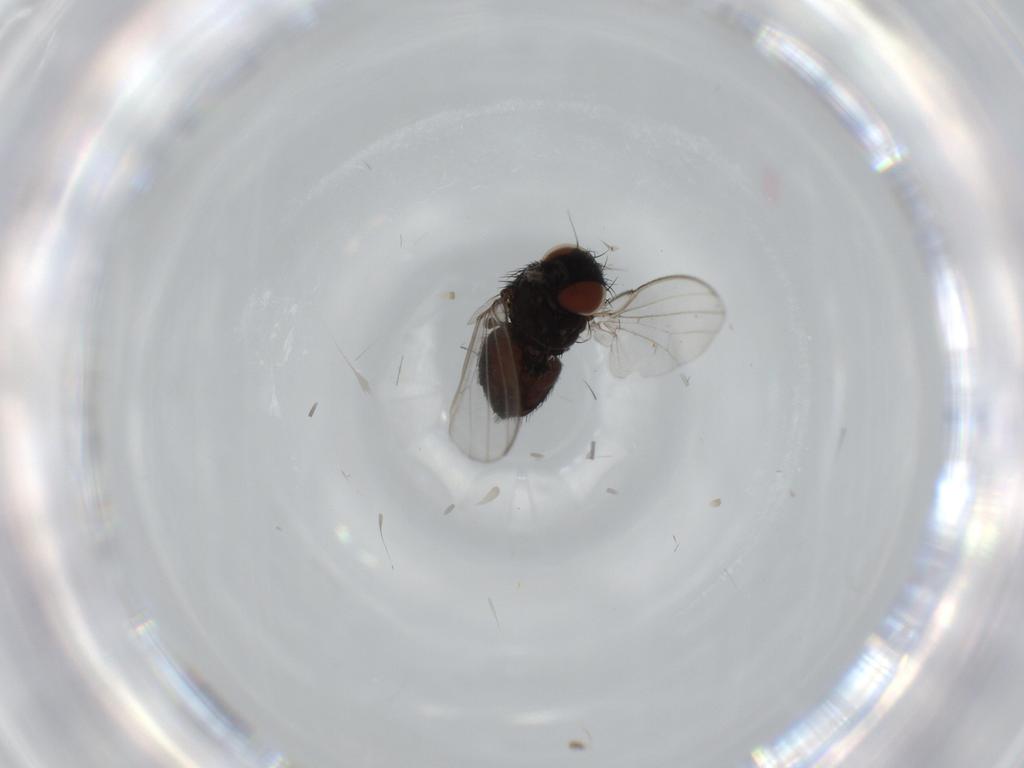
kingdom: Animalia
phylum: Arthropoda
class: Insecta
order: Diptera
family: Milichiidae
